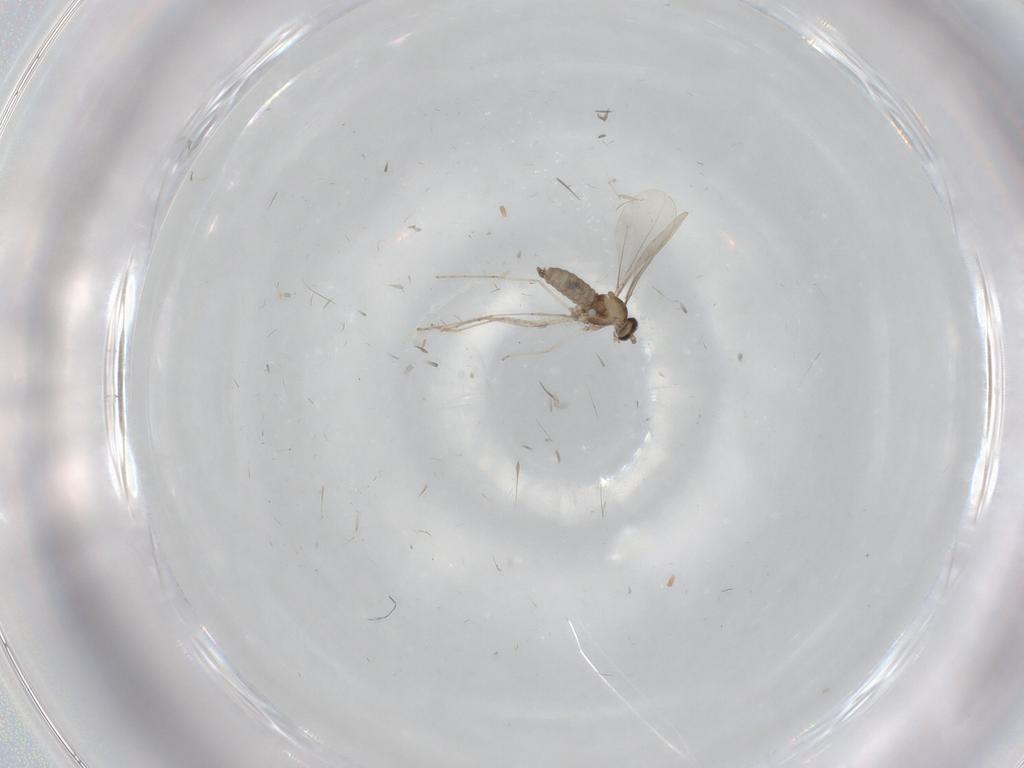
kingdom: Animalia
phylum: Arthropoda
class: Insecta
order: Diptera
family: Cecidomyiidae
